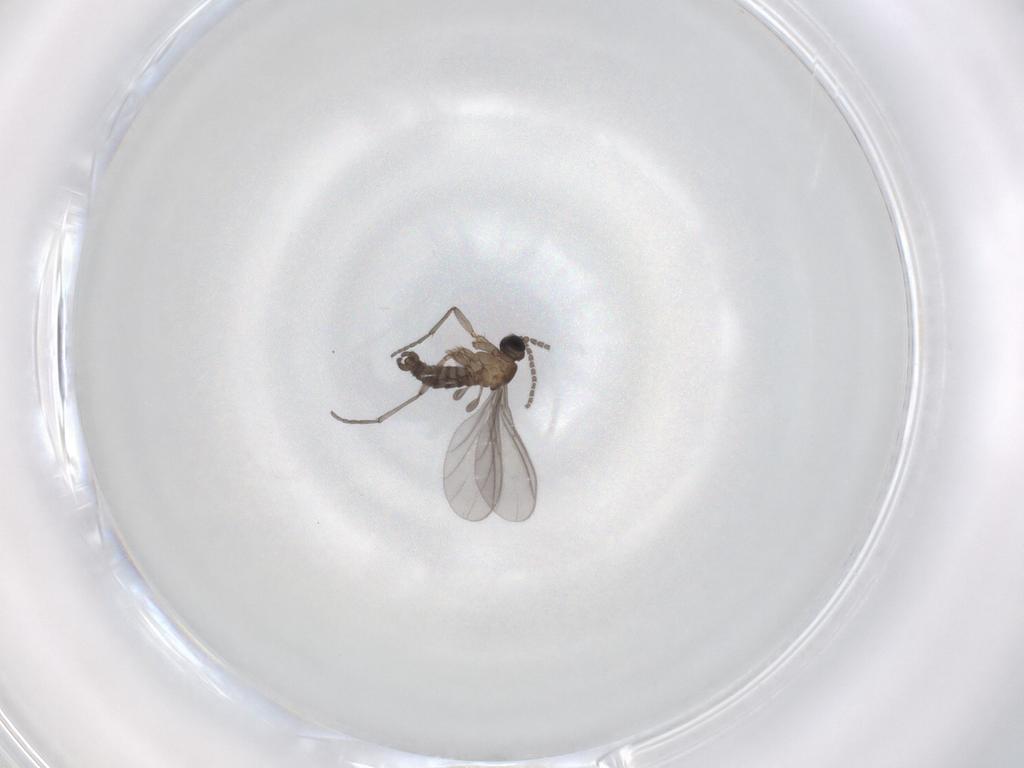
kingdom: Animalia
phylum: Arthropoda
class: Insecta
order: Diptera
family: Sciaridae
